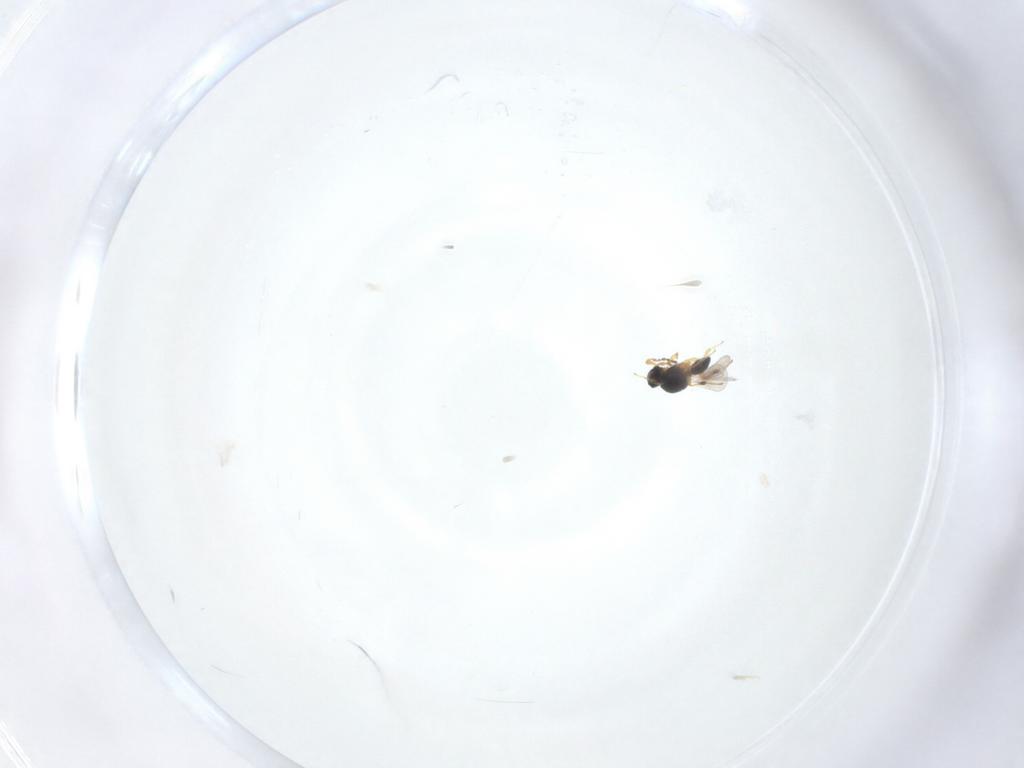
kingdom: Animalia
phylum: Arthropoda
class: Insecta
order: Hymenoptera
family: Platygastridae
